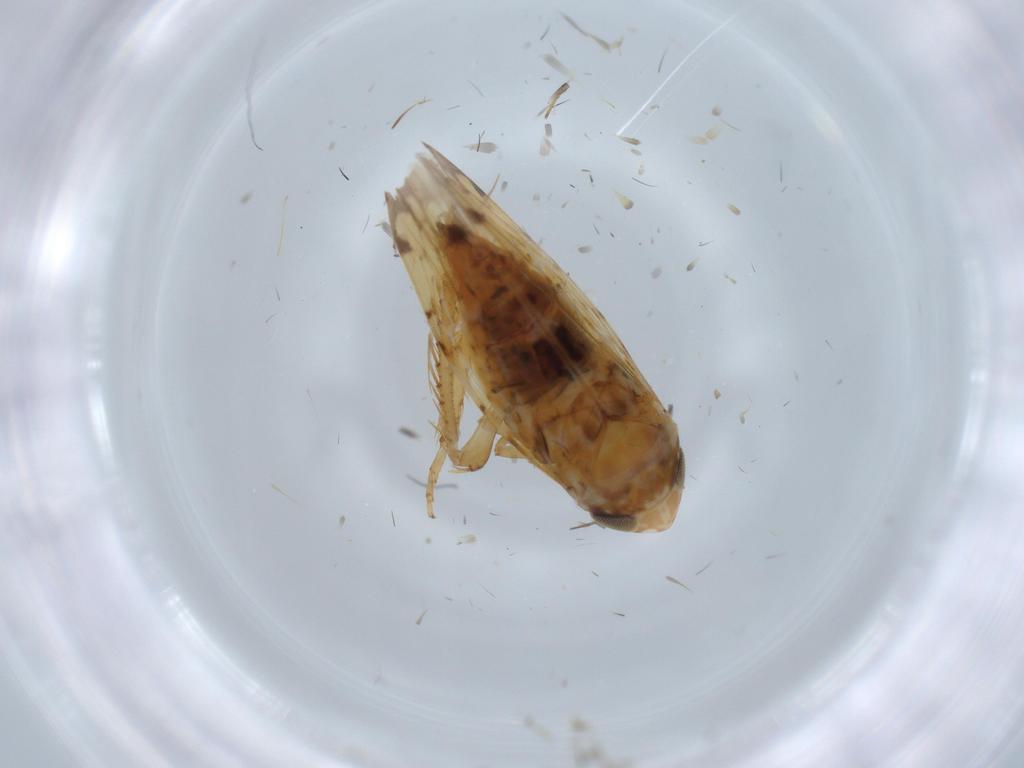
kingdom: Animalia
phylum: Arthropoda
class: Insecta
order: Hemiptera
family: Cicadellidae
